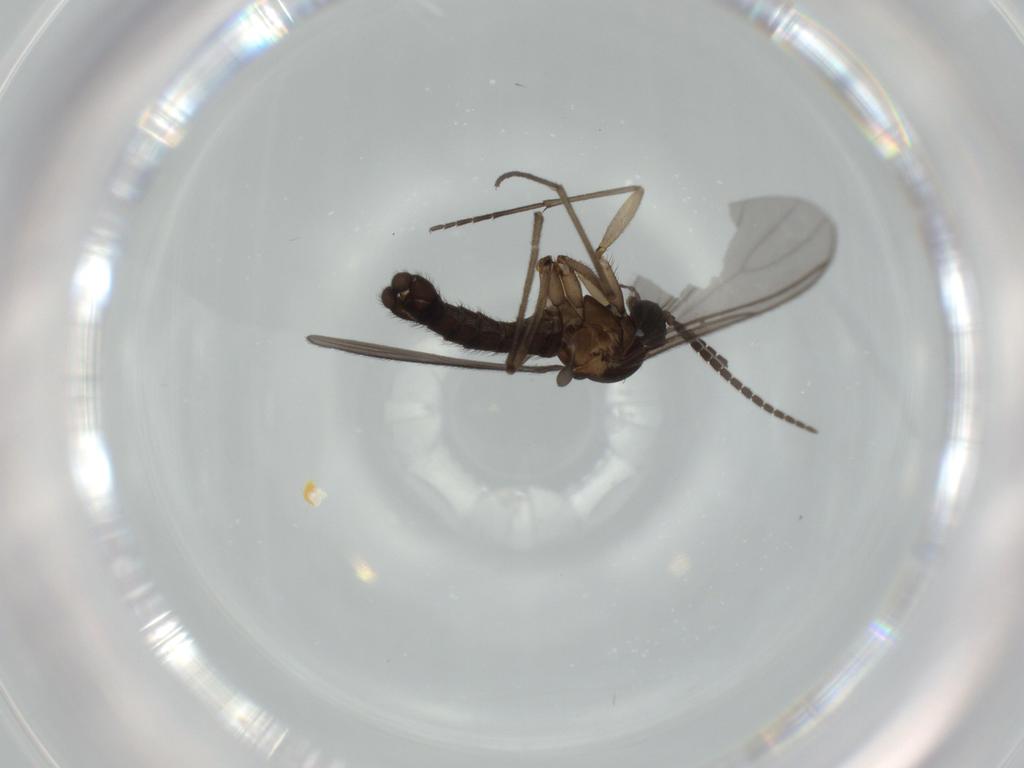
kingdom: Animalia
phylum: Arthropoda
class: Insecta
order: Diptera
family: Sciaridae
